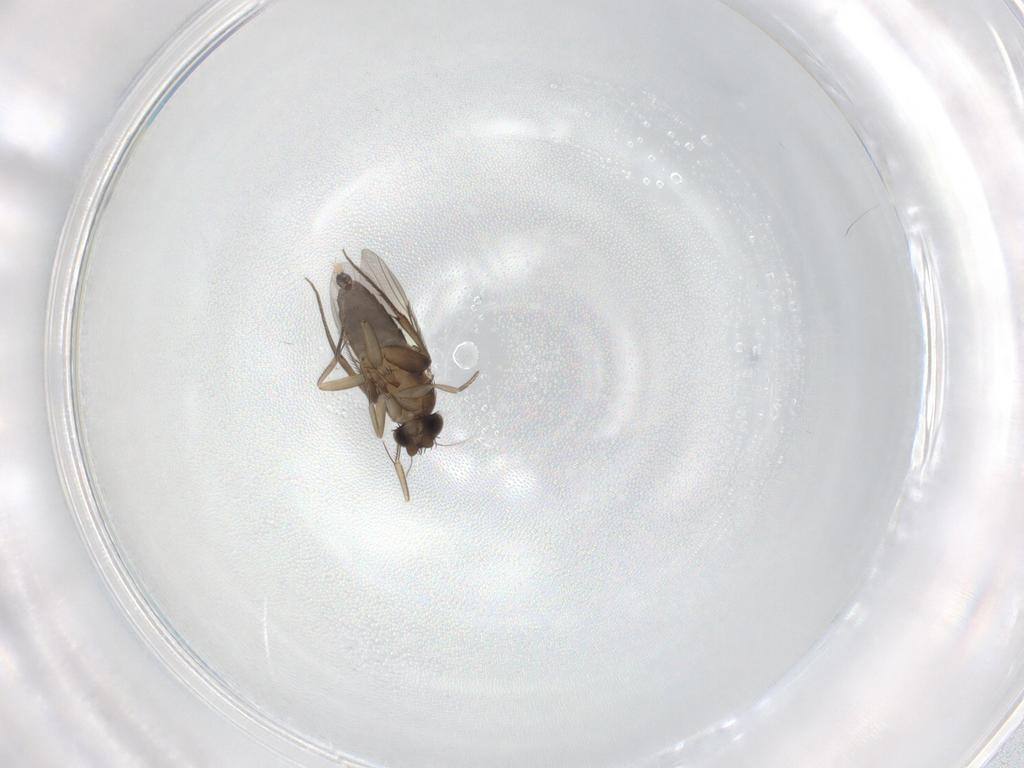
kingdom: Animalia
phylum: Arthropoda
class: Insecta
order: Diptera
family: Phoridae
